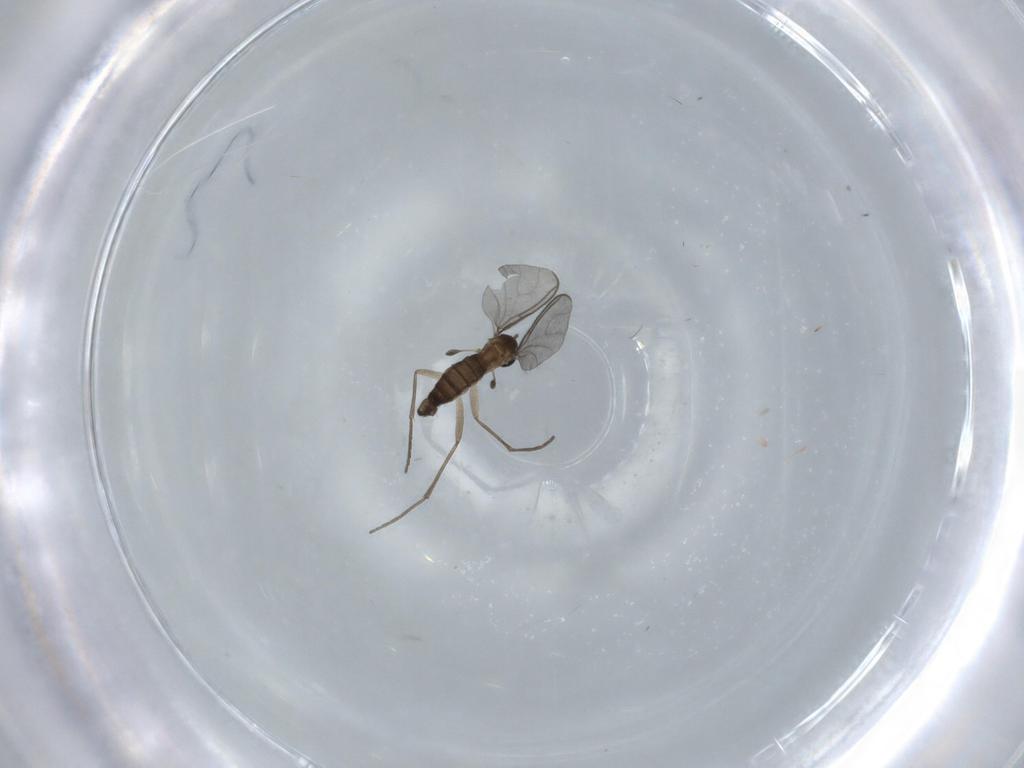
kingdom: Animalia
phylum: Arthropoda
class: Insecta
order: Diptera
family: Sciaridae
